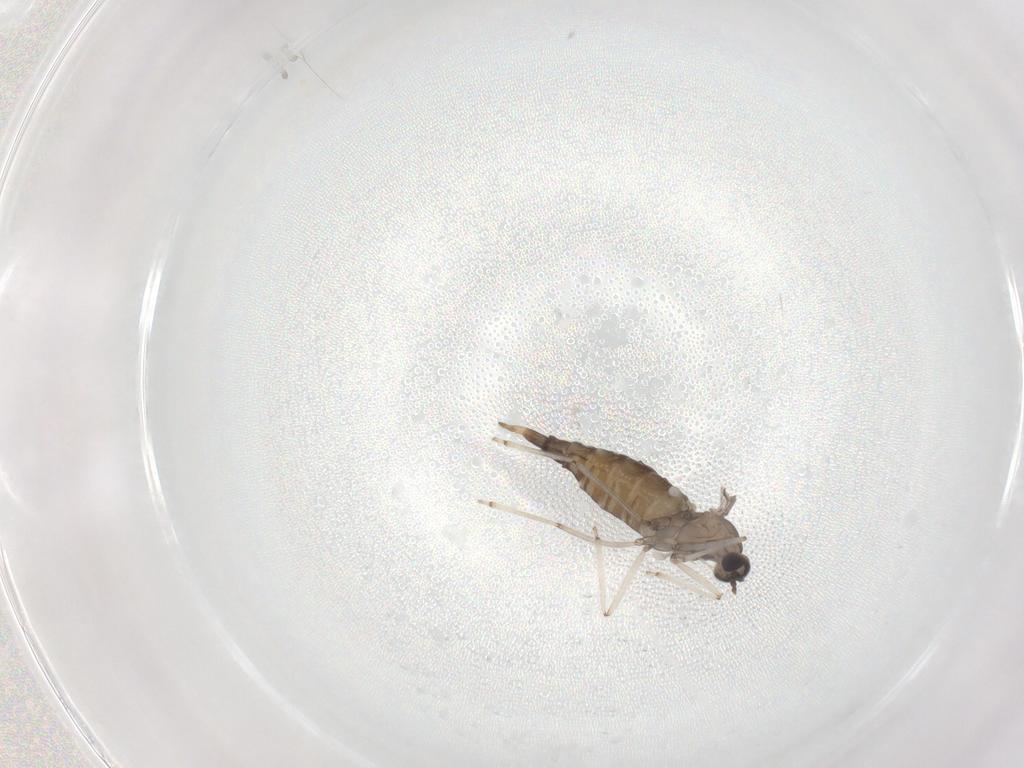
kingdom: Animalia
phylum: Arthropoda
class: Insecta
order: Diptera
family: Cecidomyiidae
